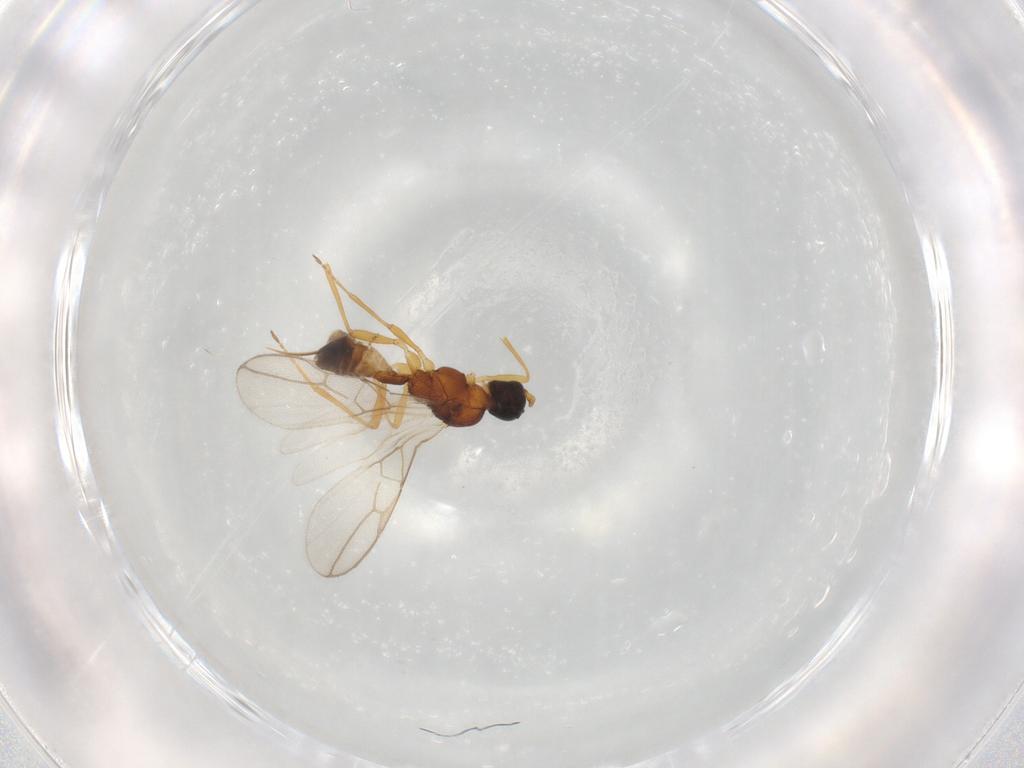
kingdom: Animalia
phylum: Arthropoda
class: Insecta
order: Hymenoptera
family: Braconidae
